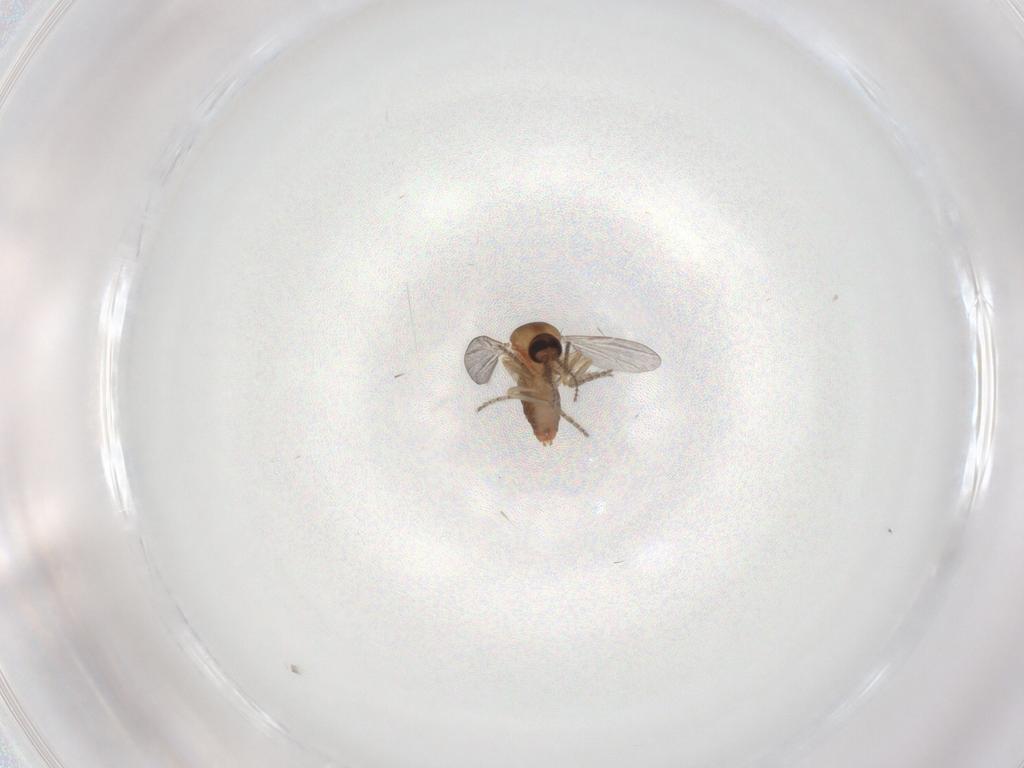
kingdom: Animalia
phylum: Arthropoda
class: Insecta
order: Diptera
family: Ceratopogonidae
